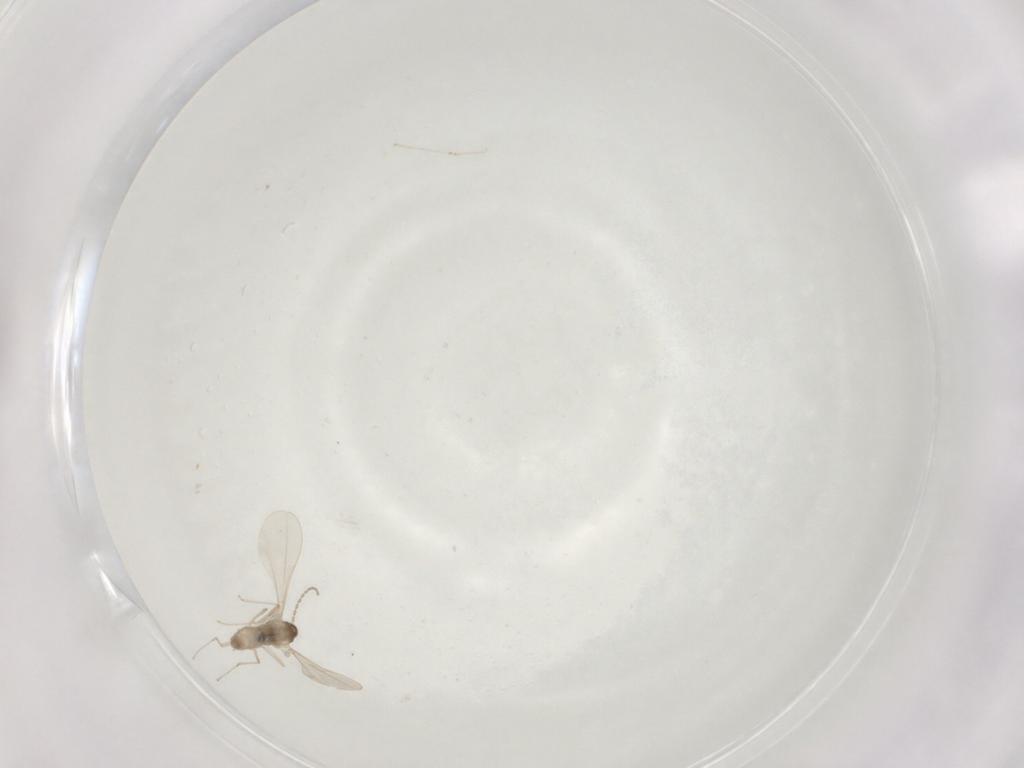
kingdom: Animalia
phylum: Arthropoda
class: Insecta
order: Diptera
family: Cecidomyiidae
